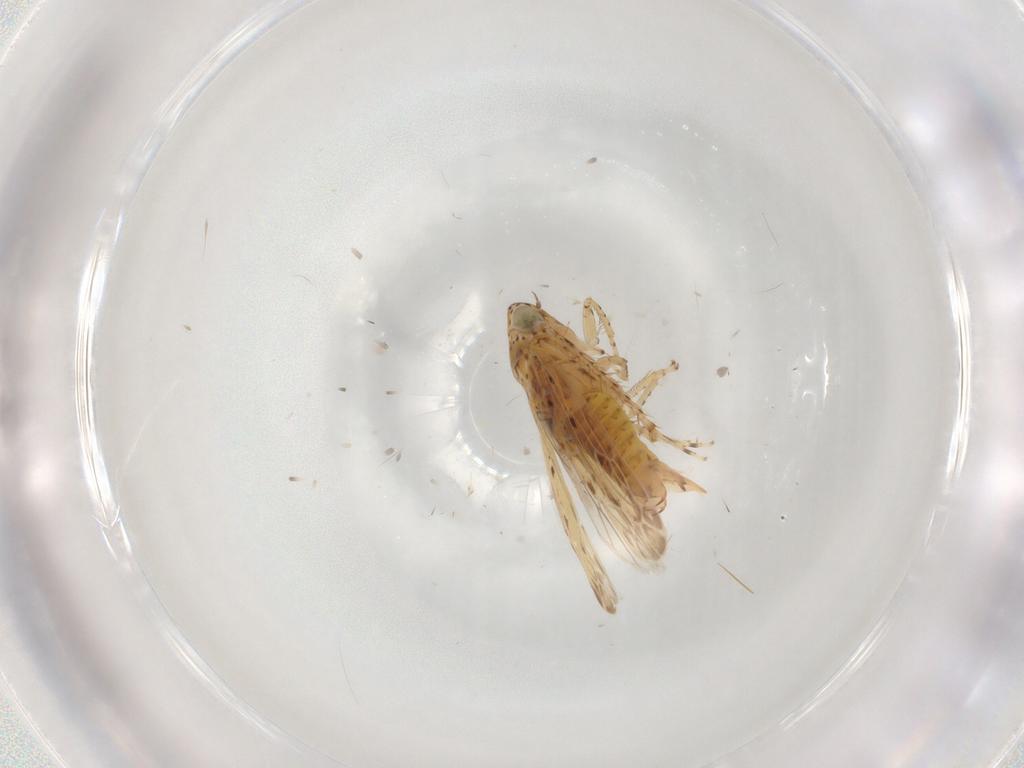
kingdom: Animalia
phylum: Arthropoda
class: Insecta
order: Hemiptera
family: Cicadellidae
